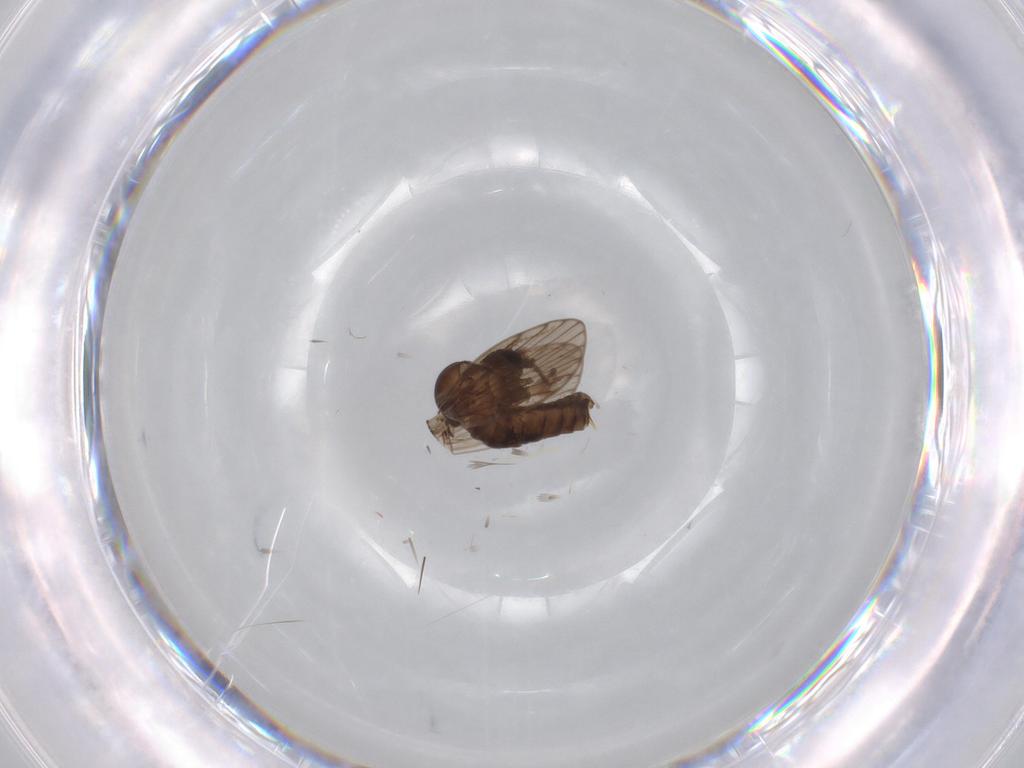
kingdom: Animalia
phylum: Arthropoda
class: Insecta
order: Diptera
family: Psychodidae
